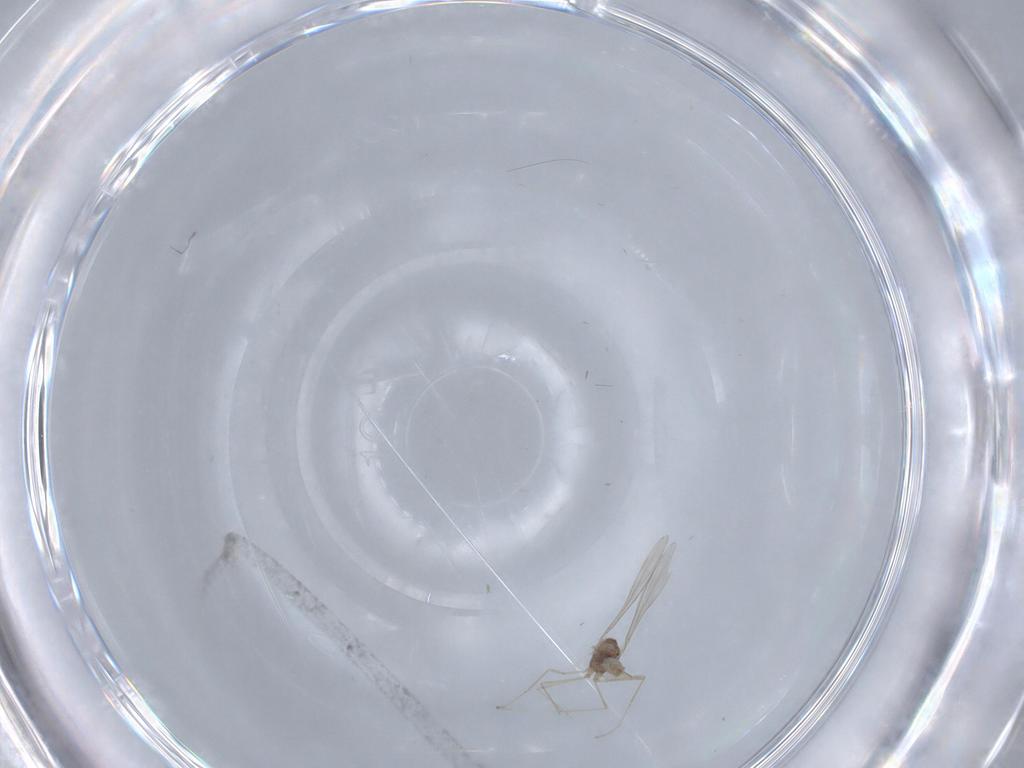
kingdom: Animalia
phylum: Arthropoda
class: Insecta
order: Diptera
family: Cecidomyiidae
